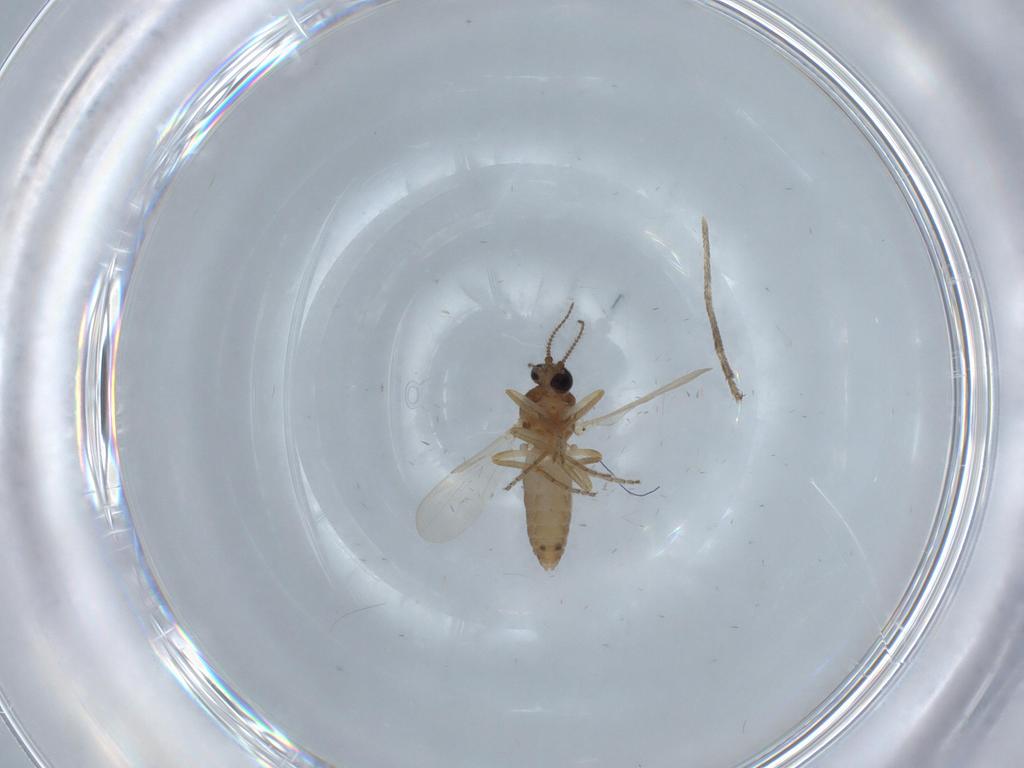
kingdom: Animalia
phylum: Arthropoda
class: Insecta
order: Diptera
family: Ceratopogonidae
